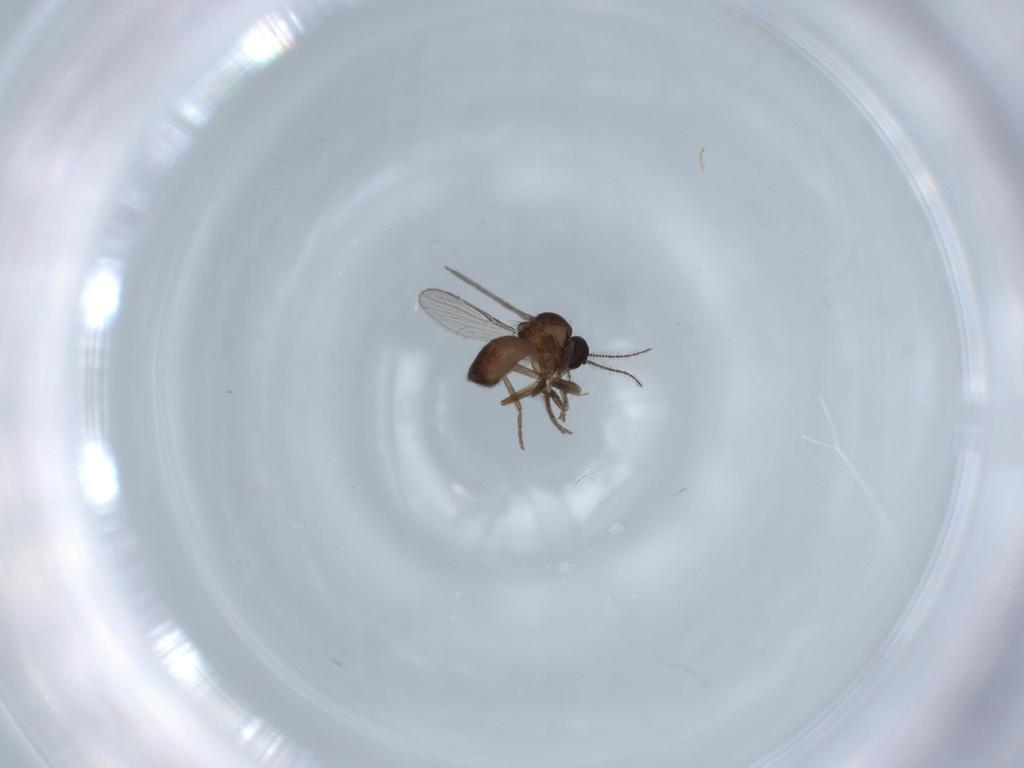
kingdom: Animalia
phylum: Arthropoda
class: Insecta
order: Diptera
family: Ceratopogonidae
